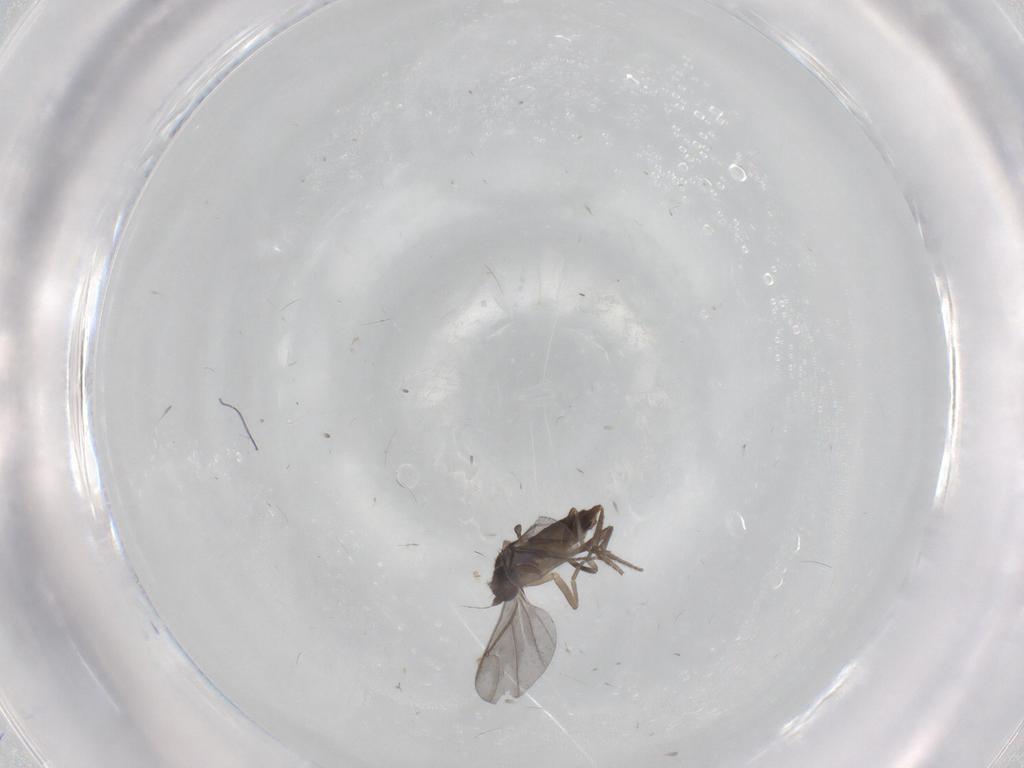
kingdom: Animalia
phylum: Arthropoda
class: Insecta
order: Diptera
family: Phoridae
